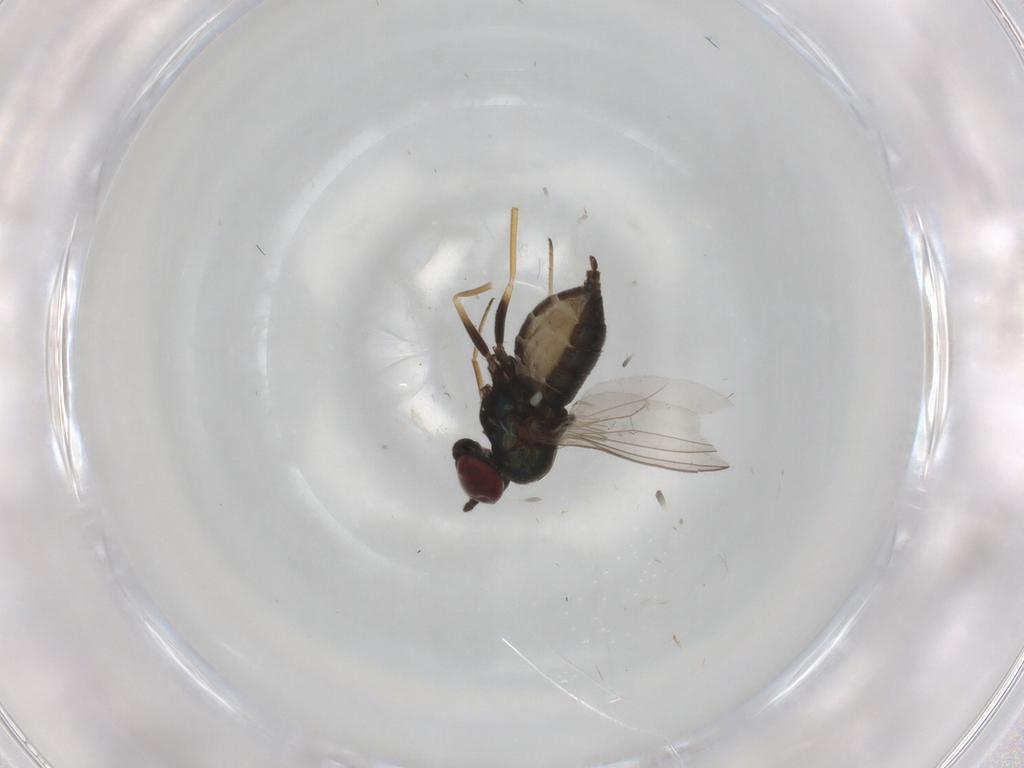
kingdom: Animalia
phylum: Arthropoda
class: Insecta
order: Diptera
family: Dolichopodidae
